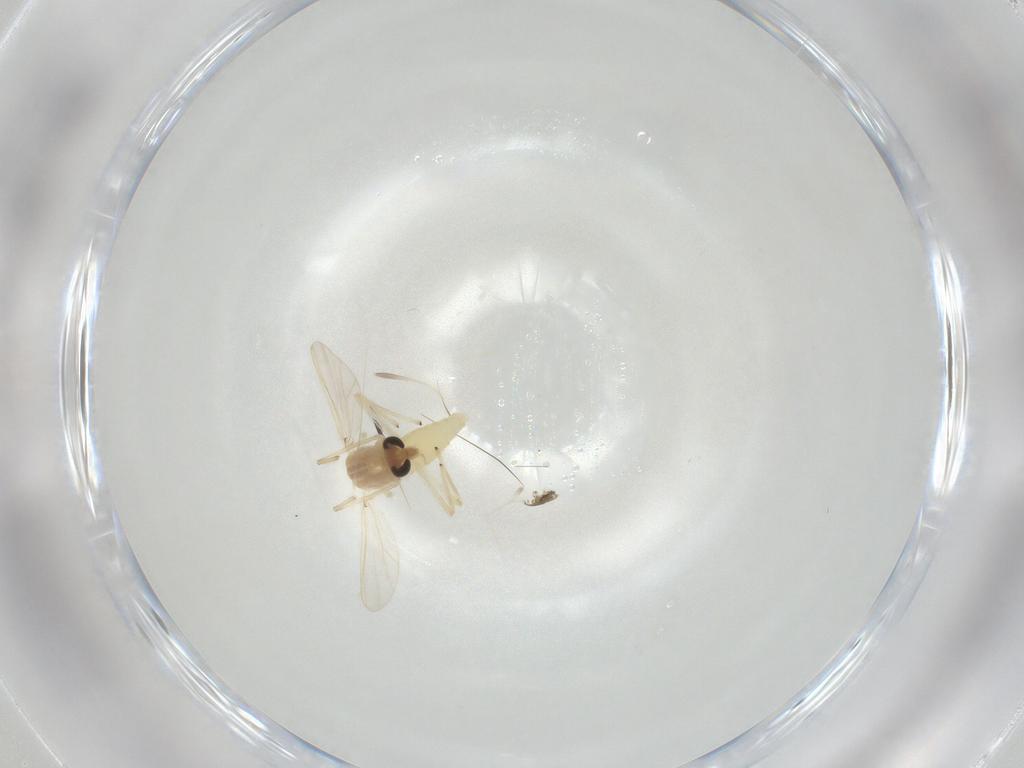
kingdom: Animalia
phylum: Arthropoda
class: Insecta
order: Diptera
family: Chironomidae
